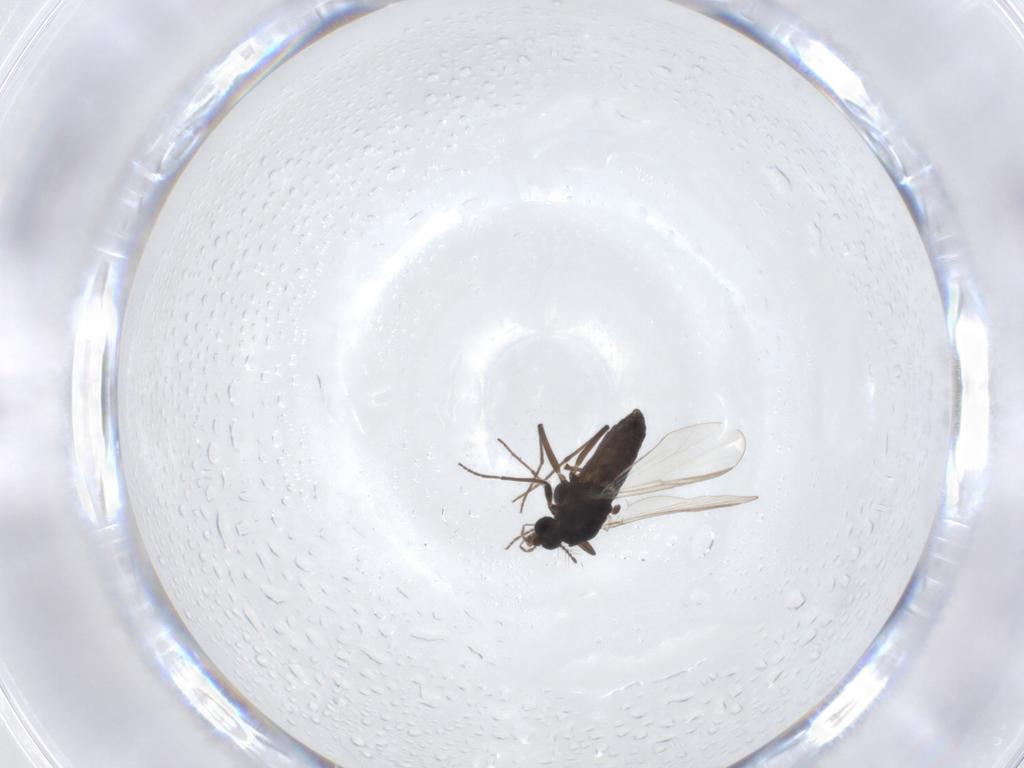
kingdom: Animalia
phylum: Arthropoda
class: Insecta
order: Diptera
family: Chironomidae
